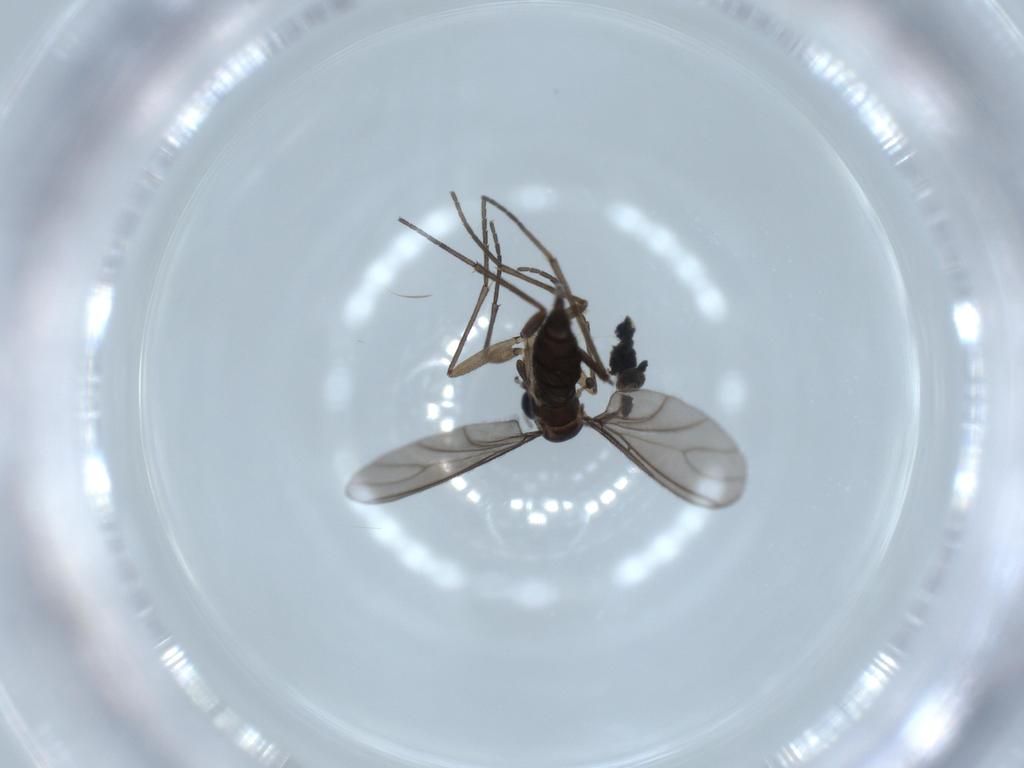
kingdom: Animalia
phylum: Arthropoda
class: Insecta
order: Diptera
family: Sciaridae
